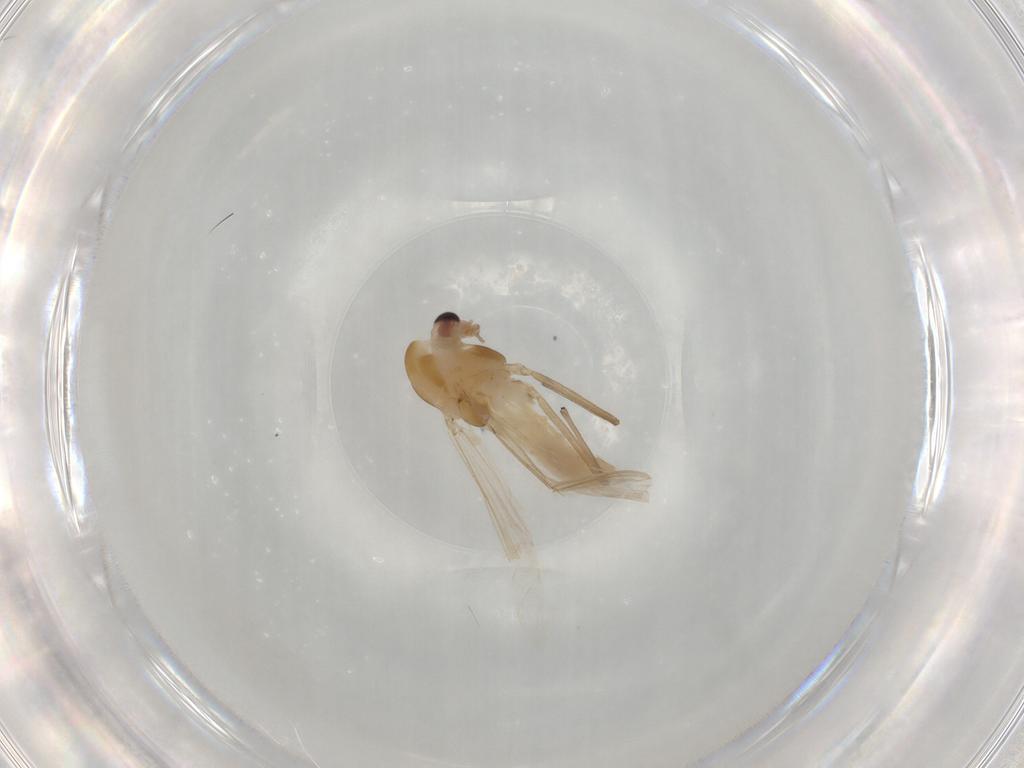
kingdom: Animalia
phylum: Arthropoda
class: Insecta
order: Diptera
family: Chironomidae
